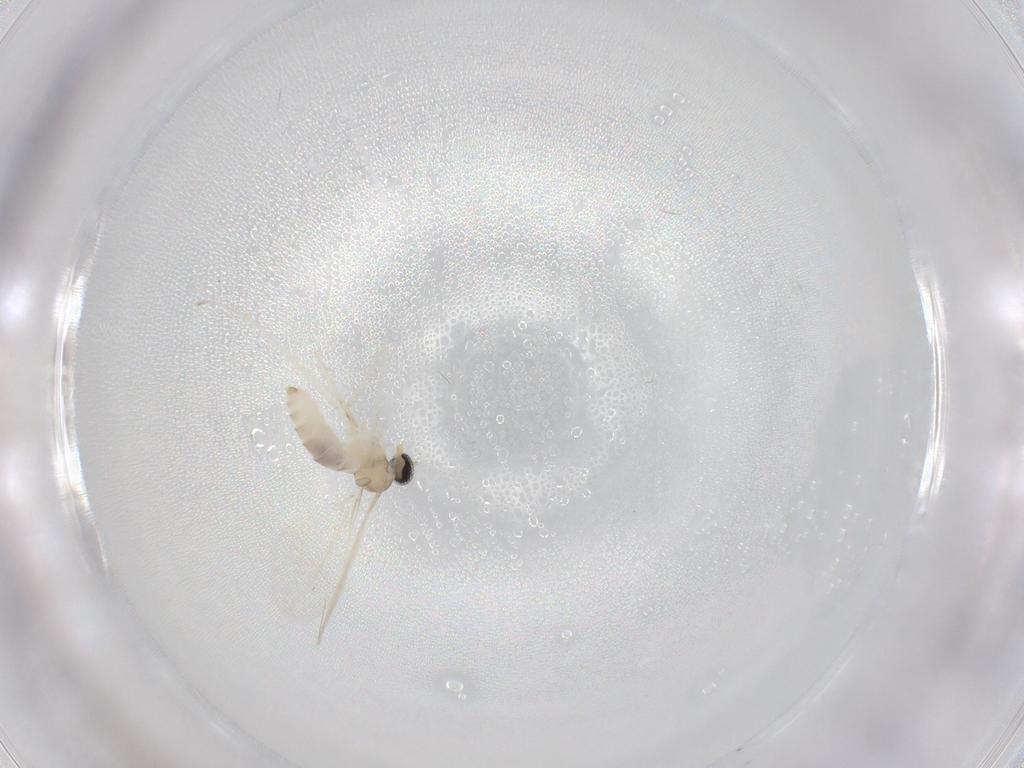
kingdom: Animalia
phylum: Arthropoda
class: Insecta
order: Diptera
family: Cecidomyiidae
